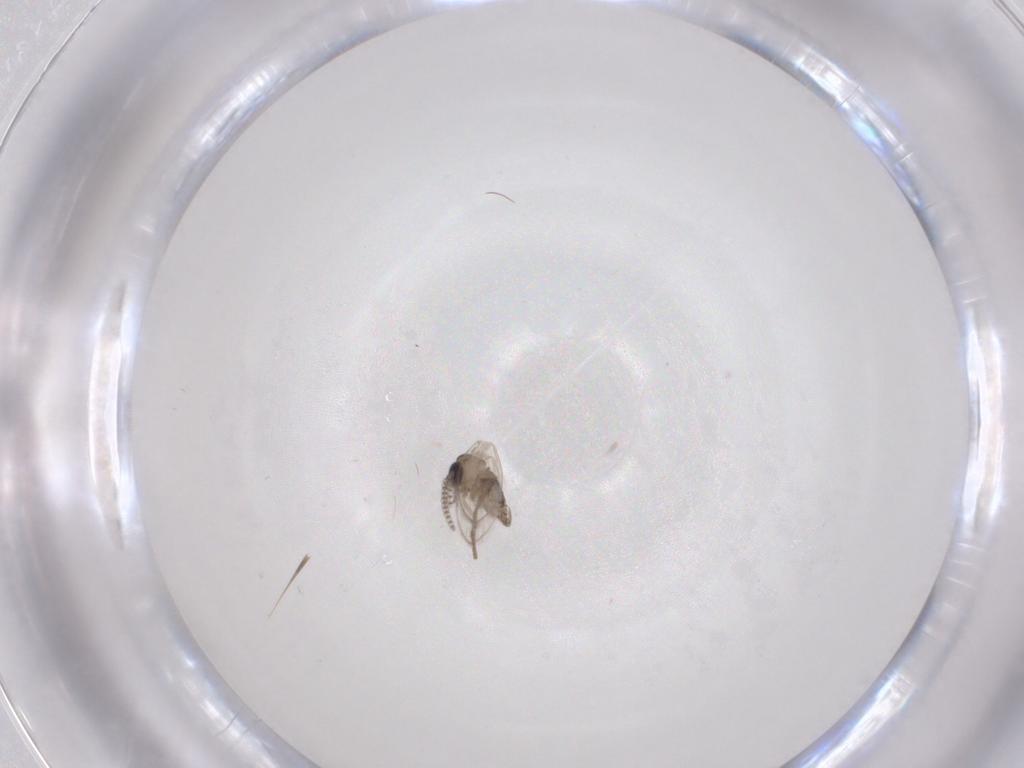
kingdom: Animalia
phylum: Arthropoda
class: Insecta
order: Diptera
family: Psychodidae
